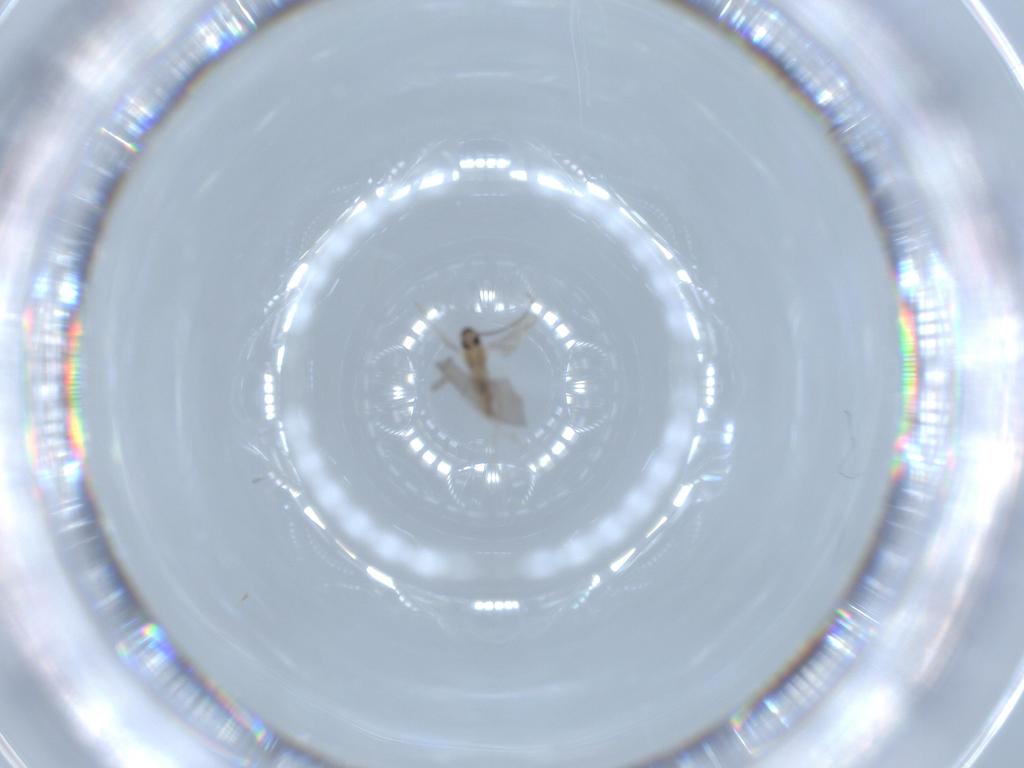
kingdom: Animalia
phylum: Arthropoda
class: Insecta
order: Diptera
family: Cecidomyiidae
